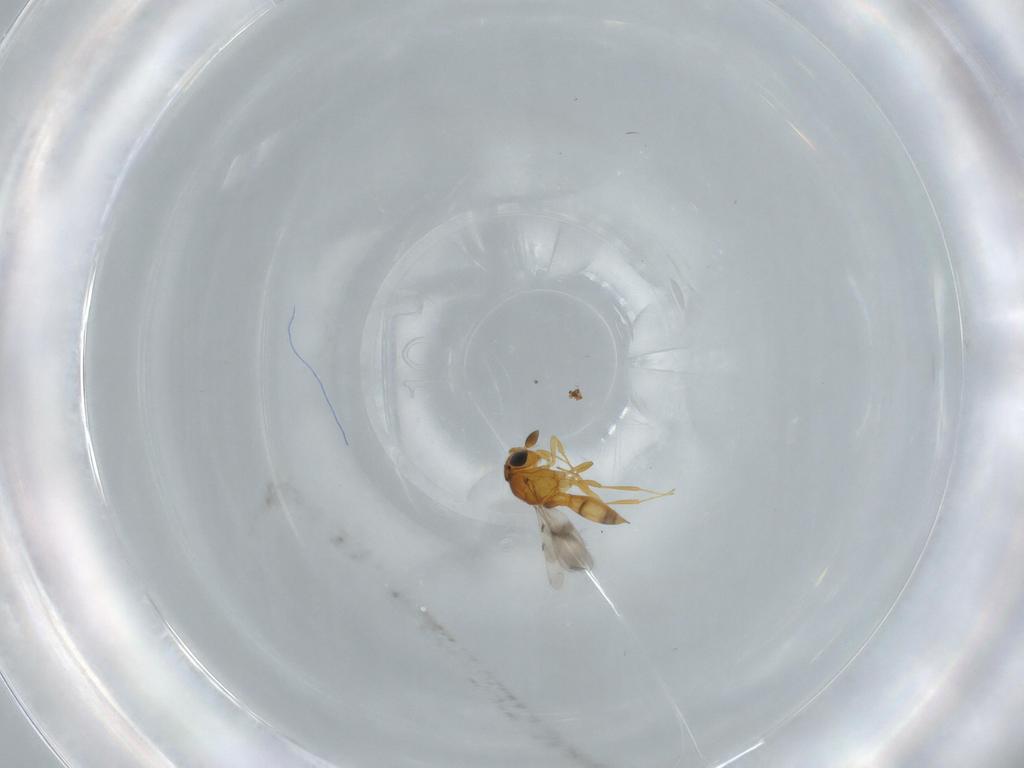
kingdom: Animalia
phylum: Arthropoda
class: Insecta
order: Hymenoptera
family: Scelionidae
